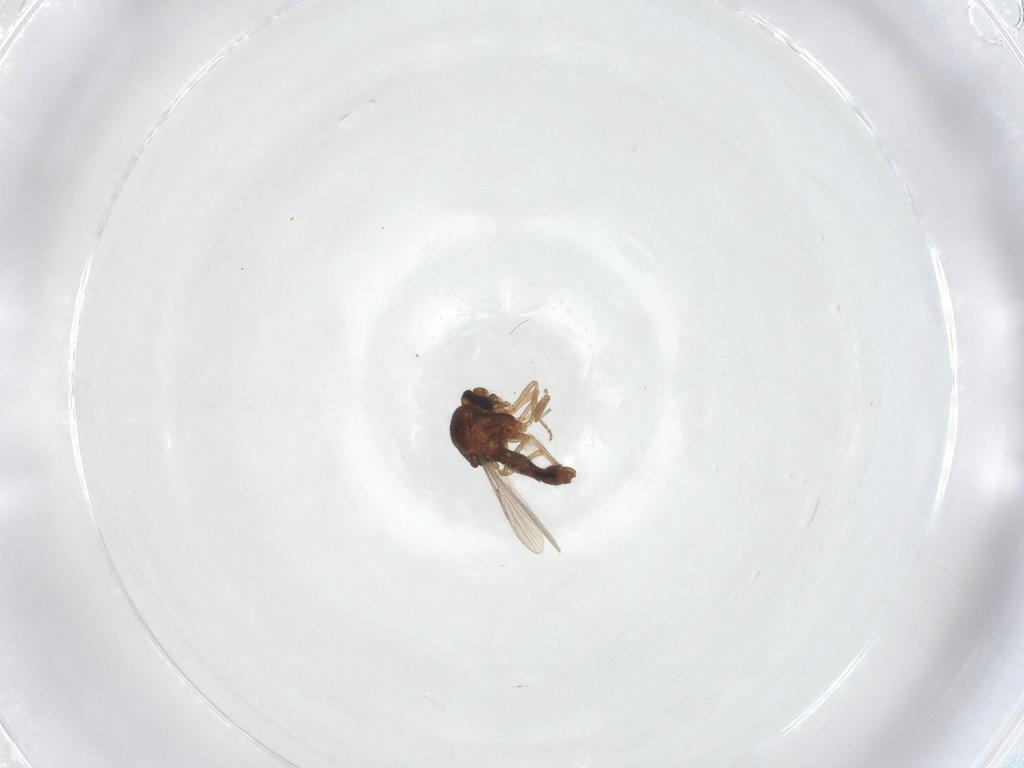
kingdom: Animalia
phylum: Arthropoda
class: Insecta
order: Diptera
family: Ceratopogonidae
